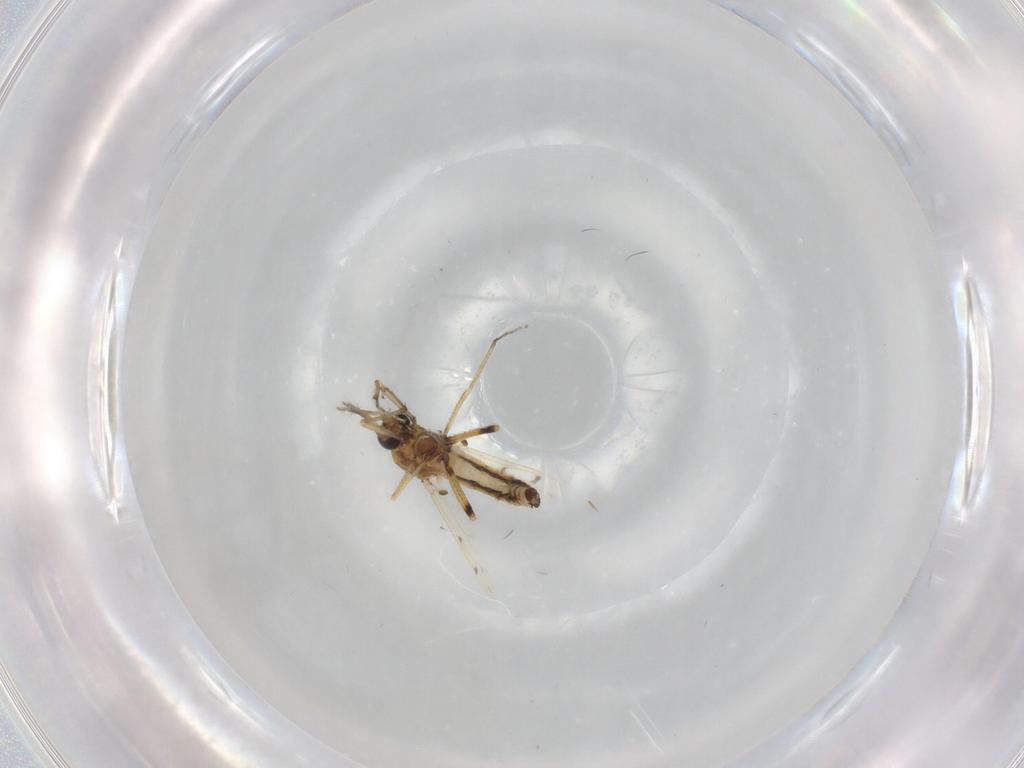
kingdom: Animalia
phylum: Arthropoda
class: Insecta
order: Diptera
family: Ceratopogonidae
